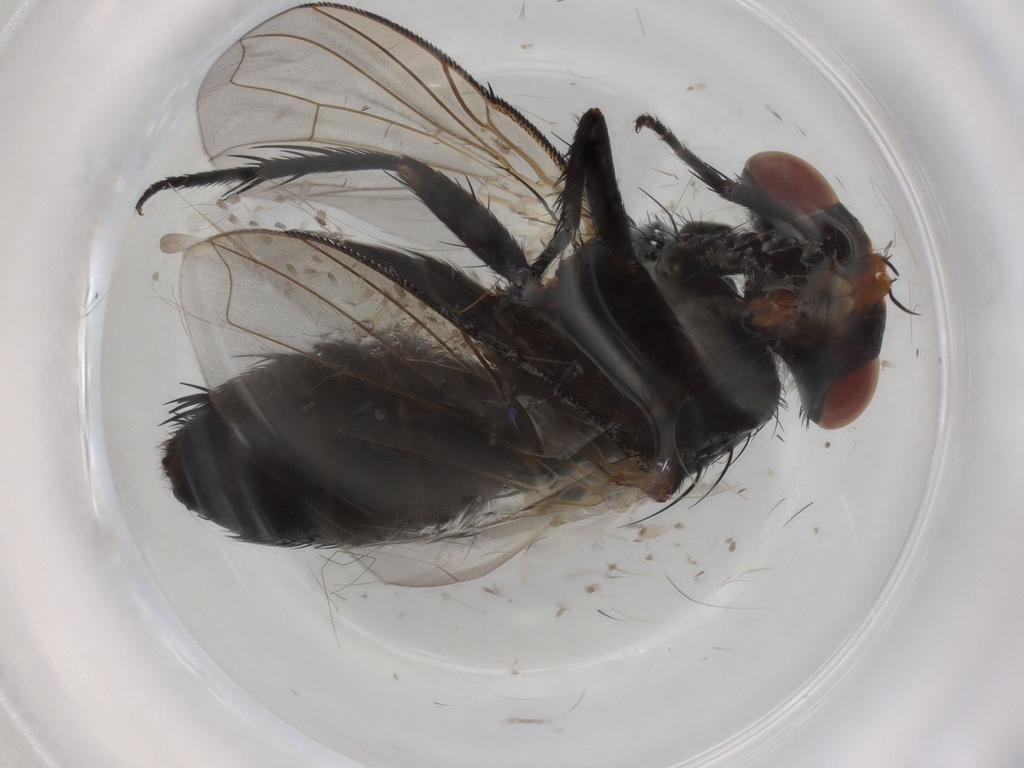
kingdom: Animalia
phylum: Arthropoda
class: Insecta
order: Diptera
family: Tachinidae
